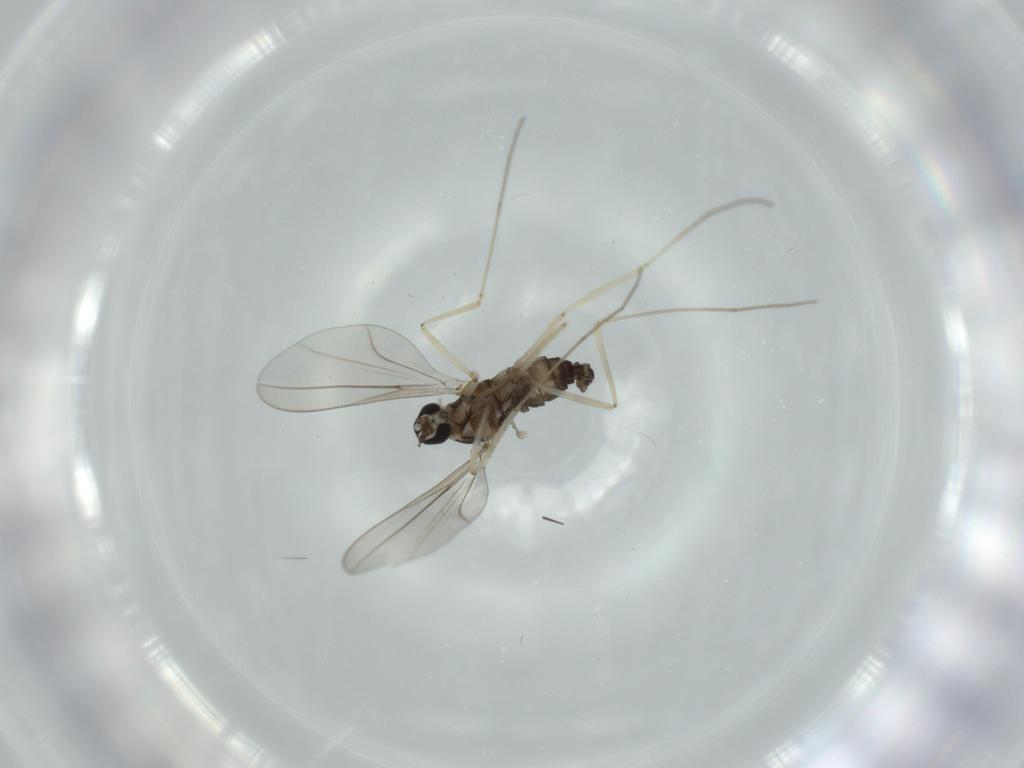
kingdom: Animalia
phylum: Arthropoda
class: Insecta
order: Diptera
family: Cecidomyiidae
